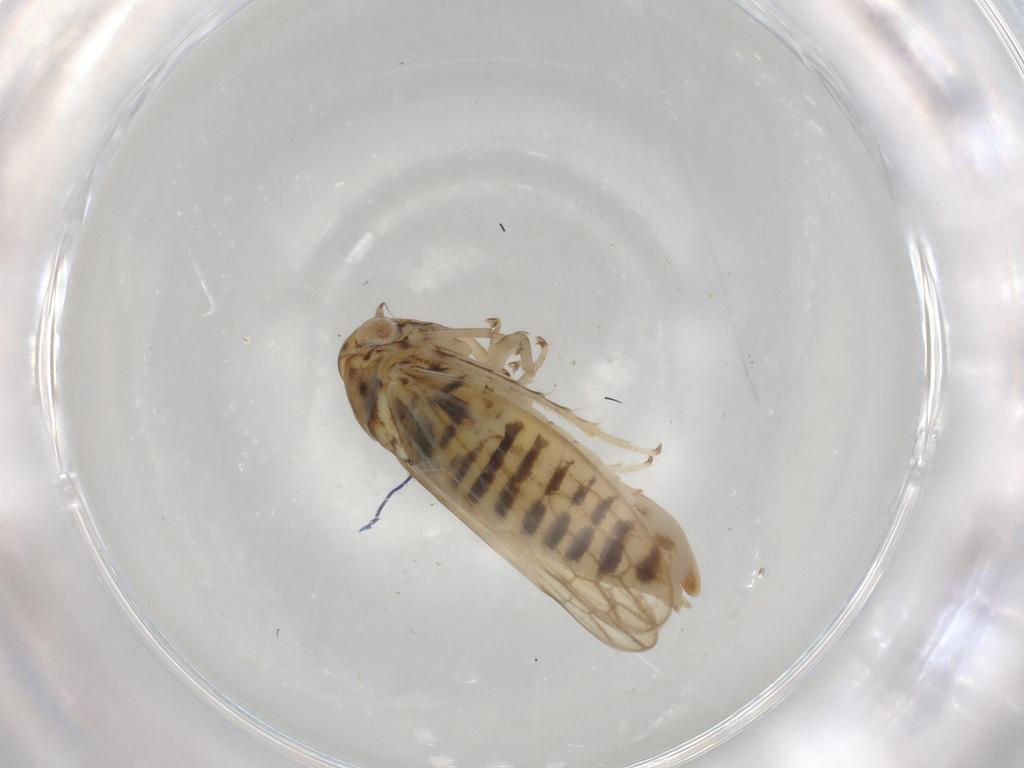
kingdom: Animalia
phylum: Arthropoda
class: Insecta
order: Hemiptera
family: Cicadellidae
